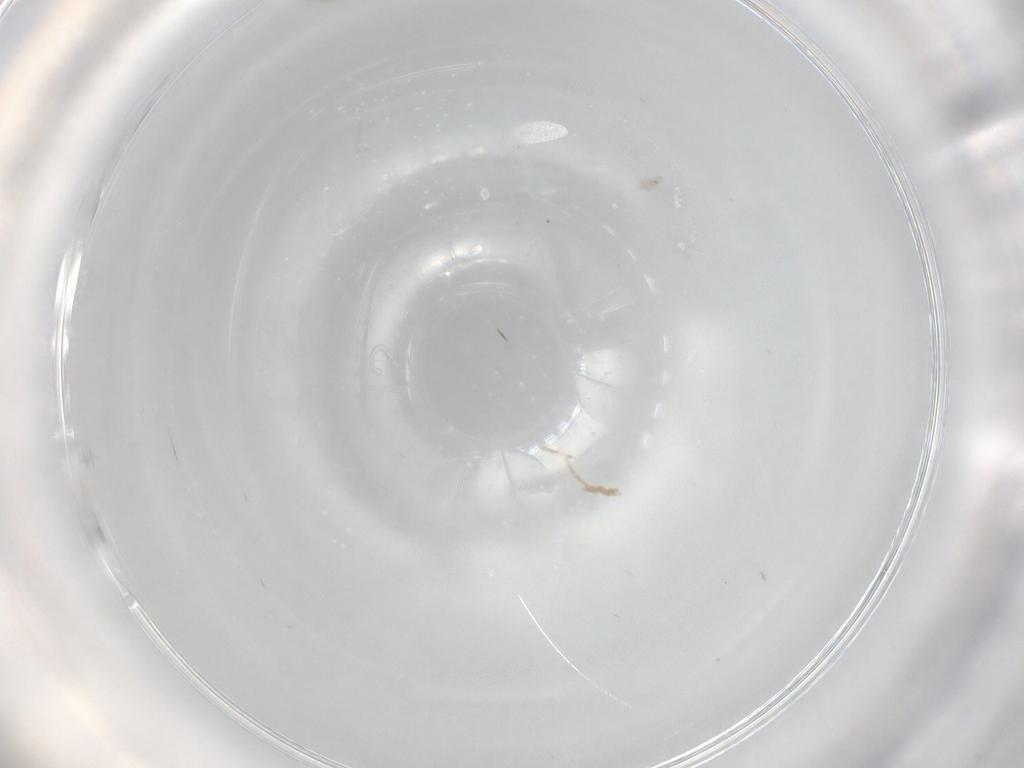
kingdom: Animalia
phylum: Arthropoda
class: Insecta
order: Diptera
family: Chironomidae
